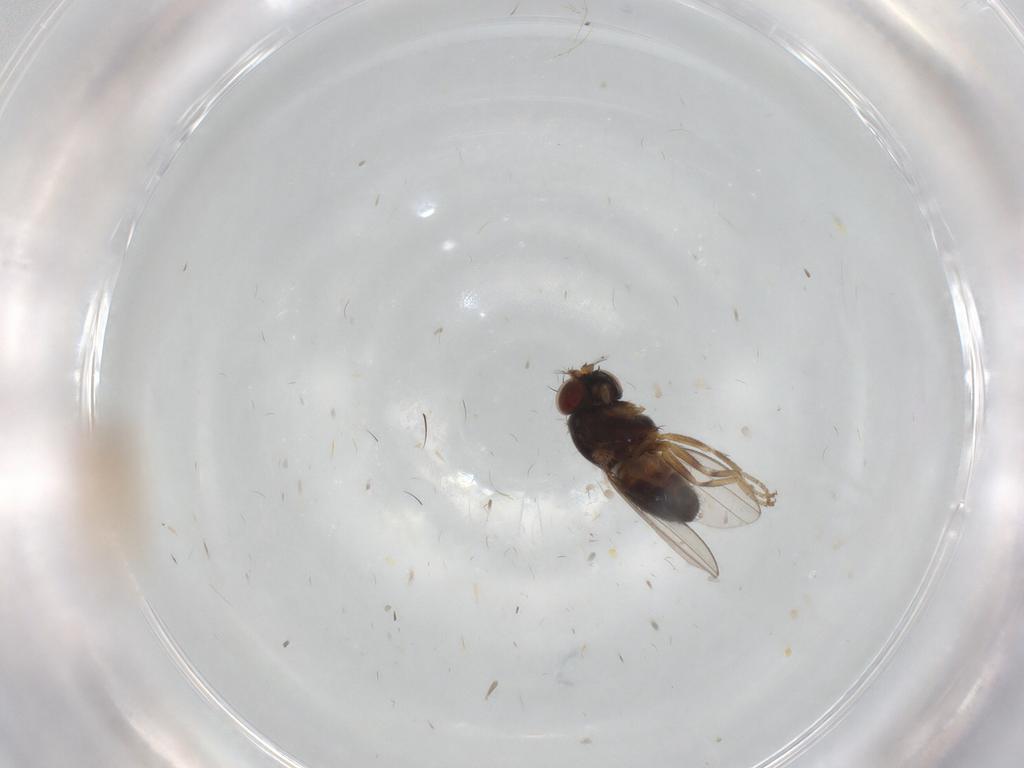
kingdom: Animalia
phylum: Arthropoda
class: Insecta
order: Diptera
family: Psychodidae
